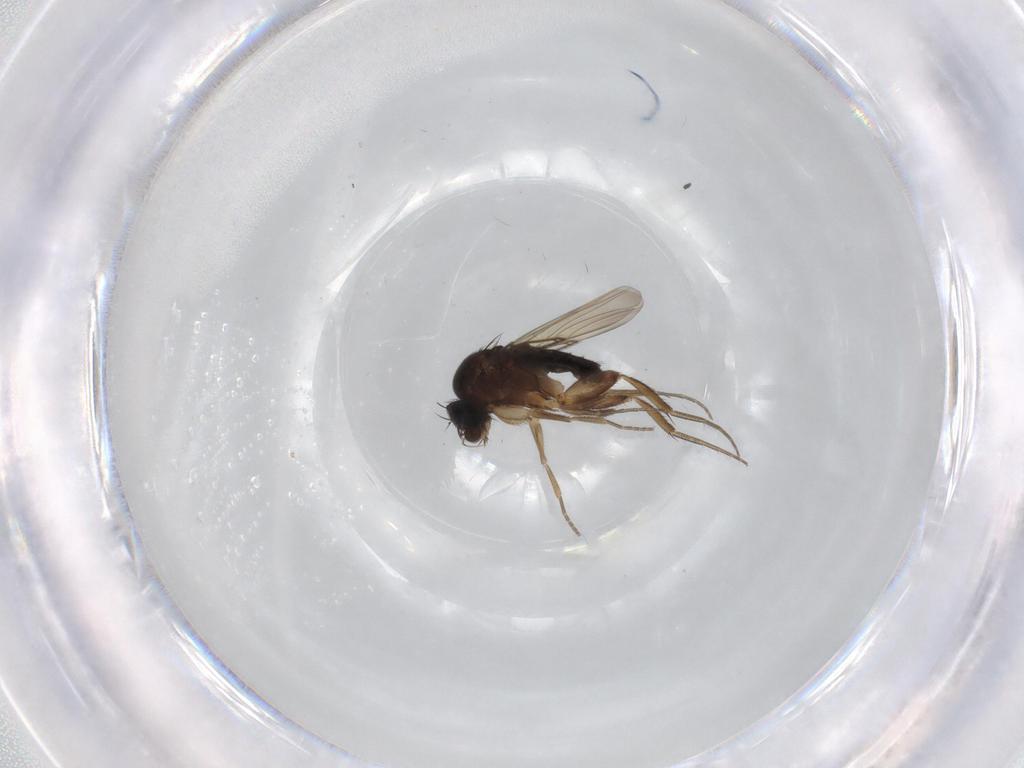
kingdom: Animalia
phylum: Arthropoda
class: Insecta
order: Diptera
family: Phoridae
